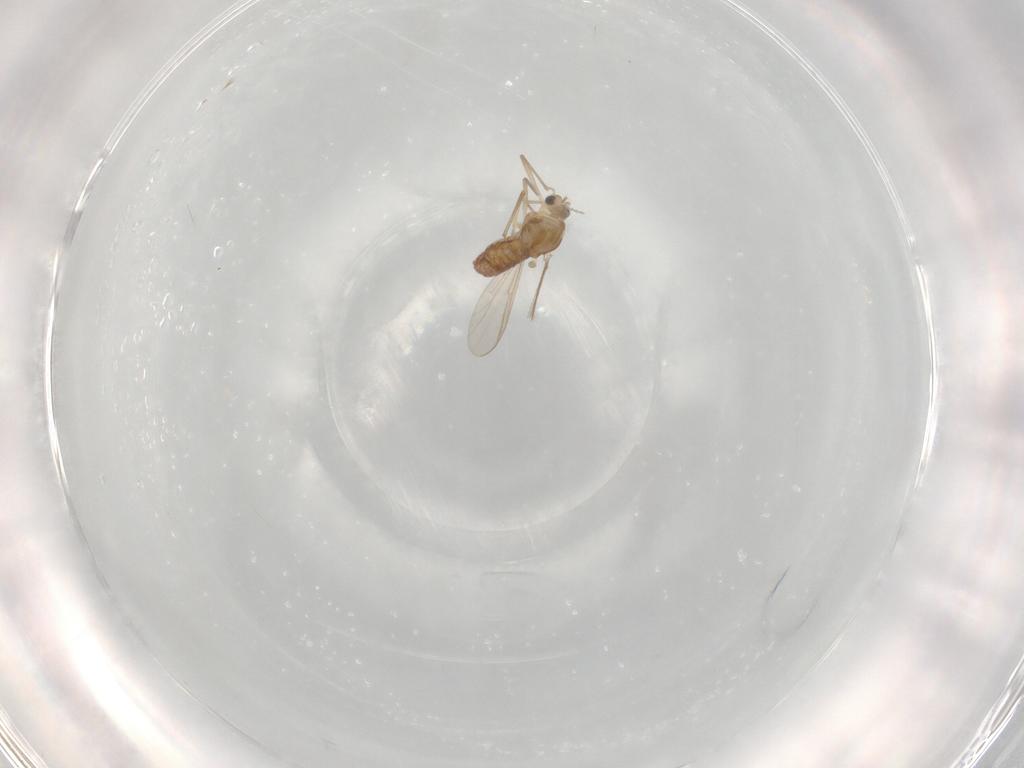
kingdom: Animalia
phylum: Arthropoda
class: Insecta
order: Diptera
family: Chironomidae
